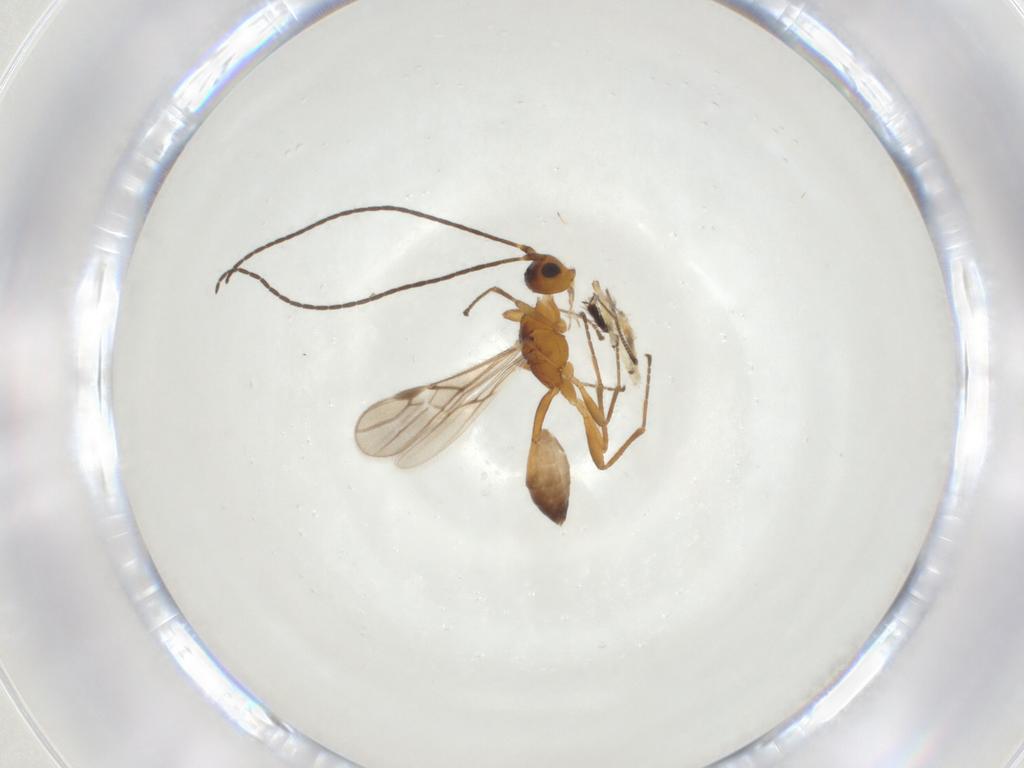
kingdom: Animalia
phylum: Arthropoda
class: Insecta
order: Hymenoptera
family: Braconidae
